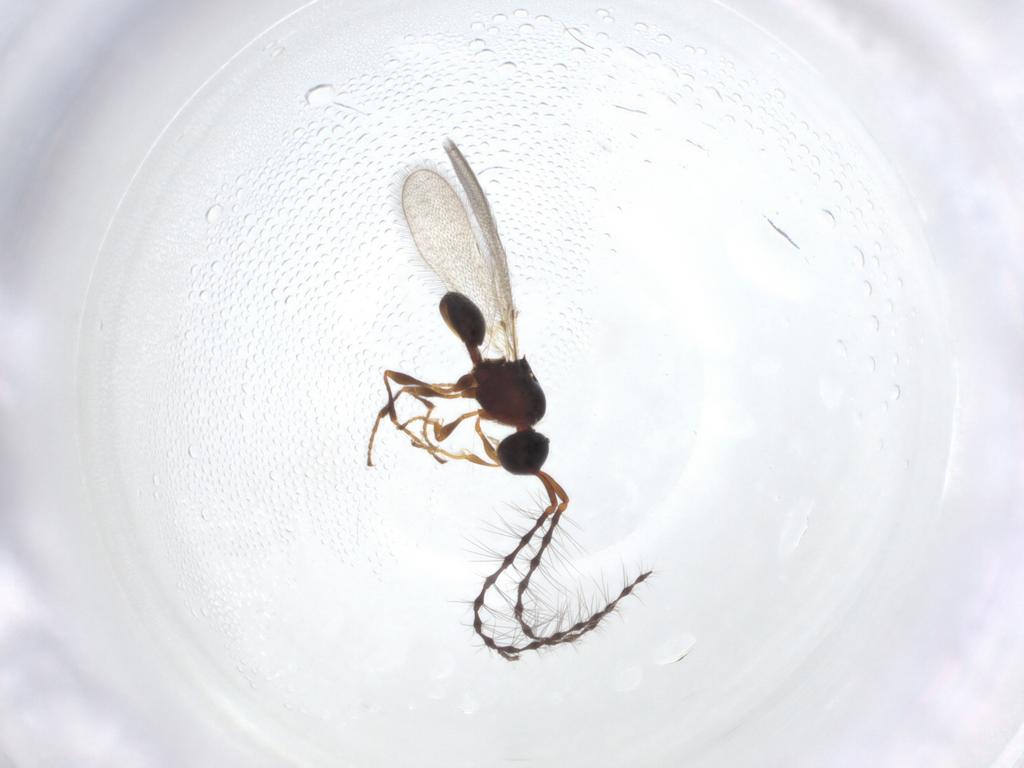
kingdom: Animalia
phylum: Arthropoda
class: Insecta
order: Hymenoptera
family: Diapriidae
